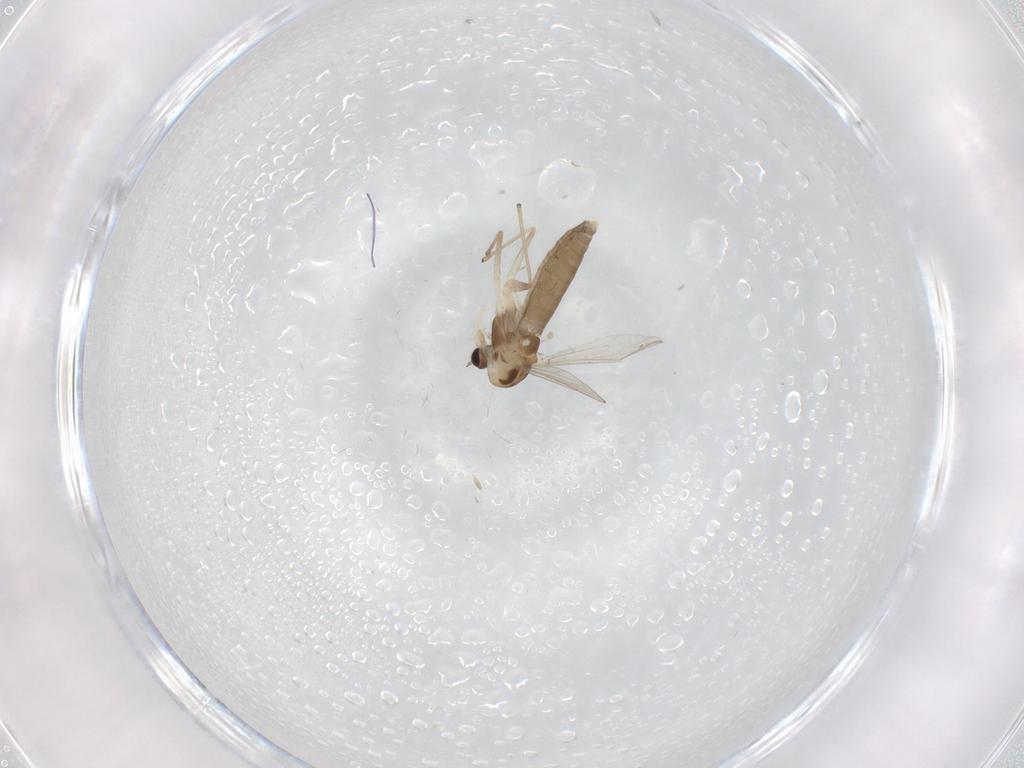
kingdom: Animalia
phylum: Arthropoda
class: Insecta
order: Diptera
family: Chironomidae
